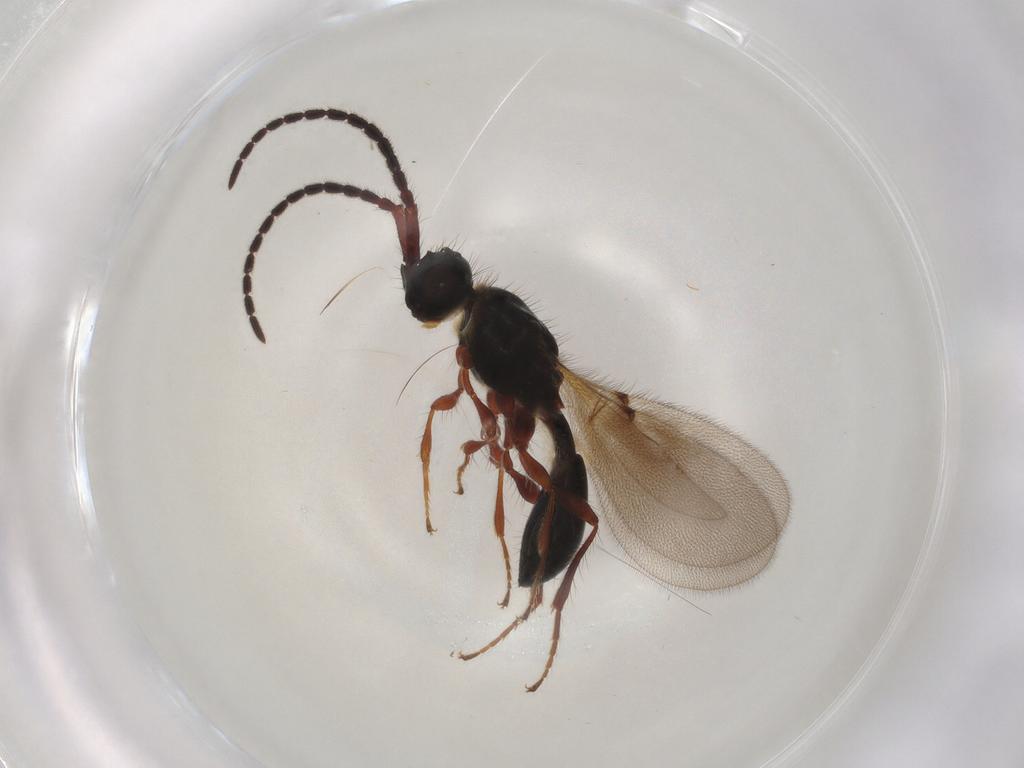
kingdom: Animalia
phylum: Arthropoda
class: Insecta
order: Hymenoptera
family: Diapriidae
